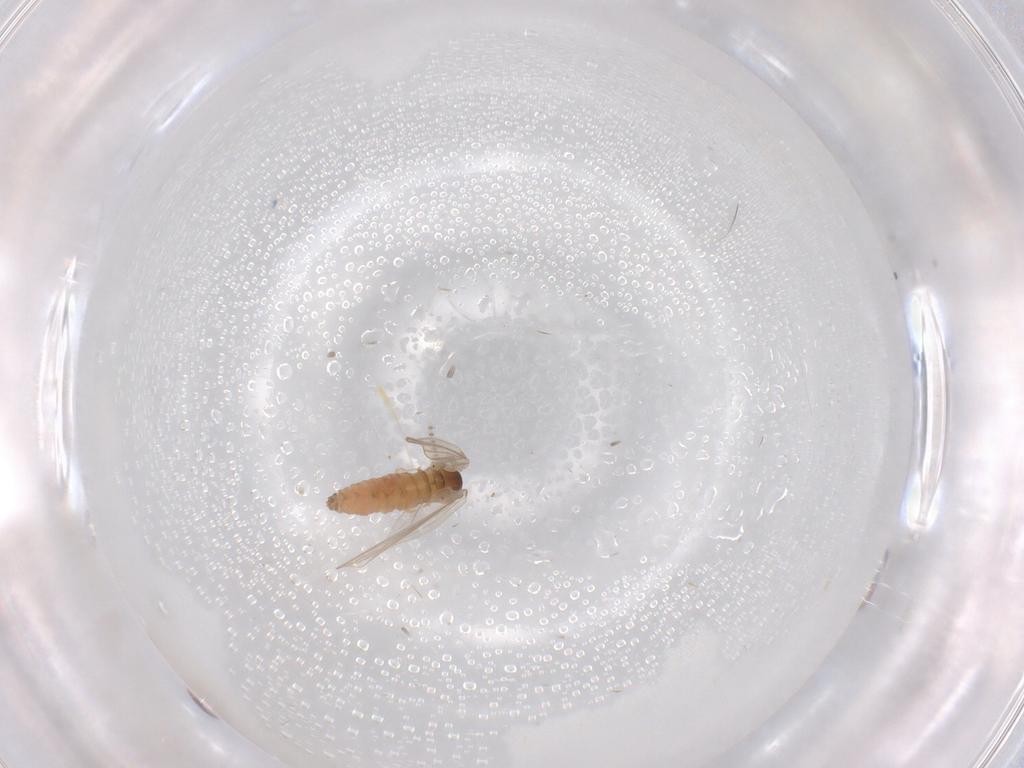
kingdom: Animalia
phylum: Arthropoda
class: Insecta
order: Diptera
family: Psychodidae
